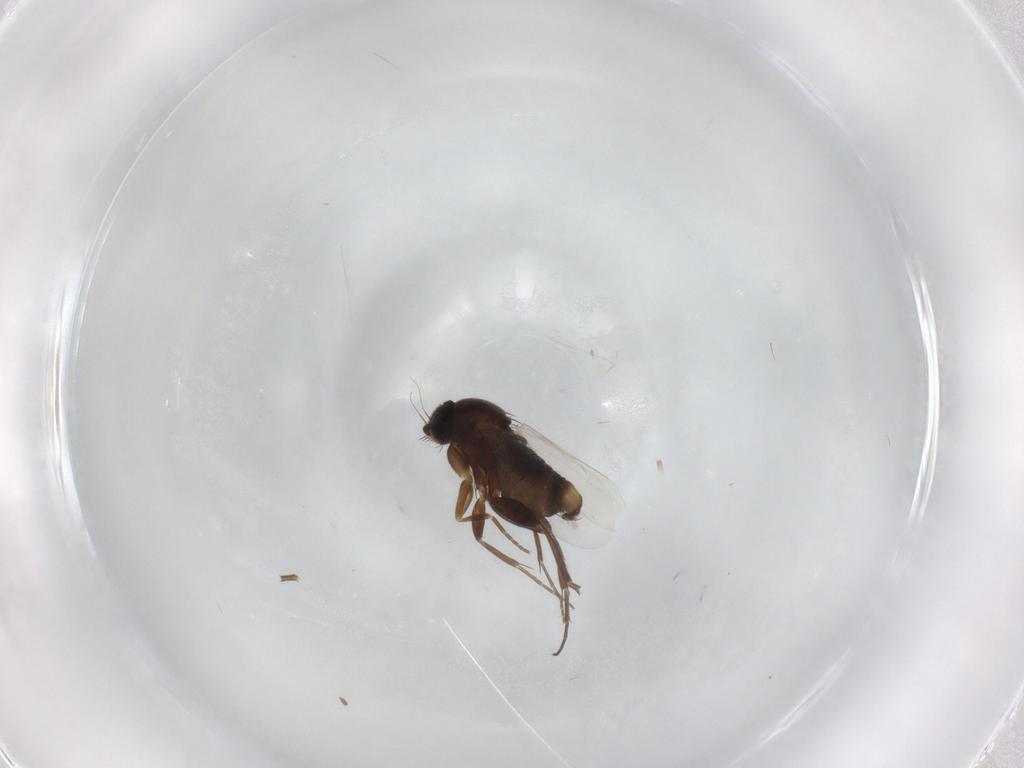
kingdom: Animalia
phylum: Arthropoda
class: Insecta
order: Diptera
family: Phoridae
